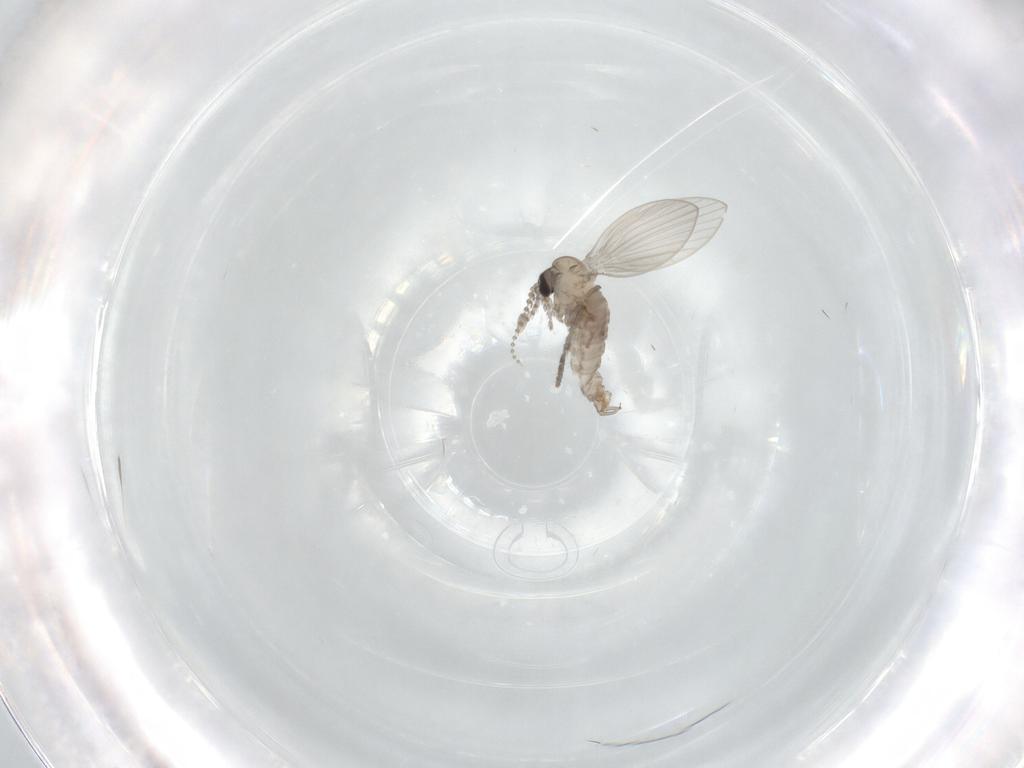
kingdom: Animalia
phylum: Arthropoda
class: Insecta
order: Diptera
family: Psychodidae
